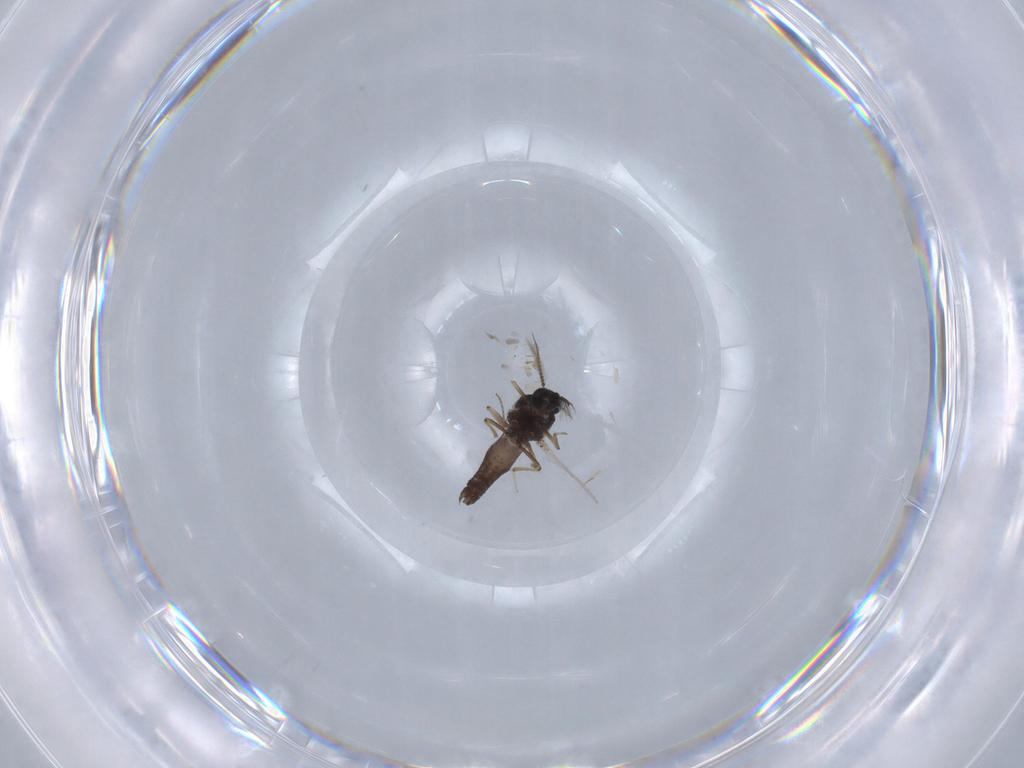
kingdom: Animalia
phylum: Arthropoda
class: Insecta
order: Diptera
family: Ceratopogonidae
